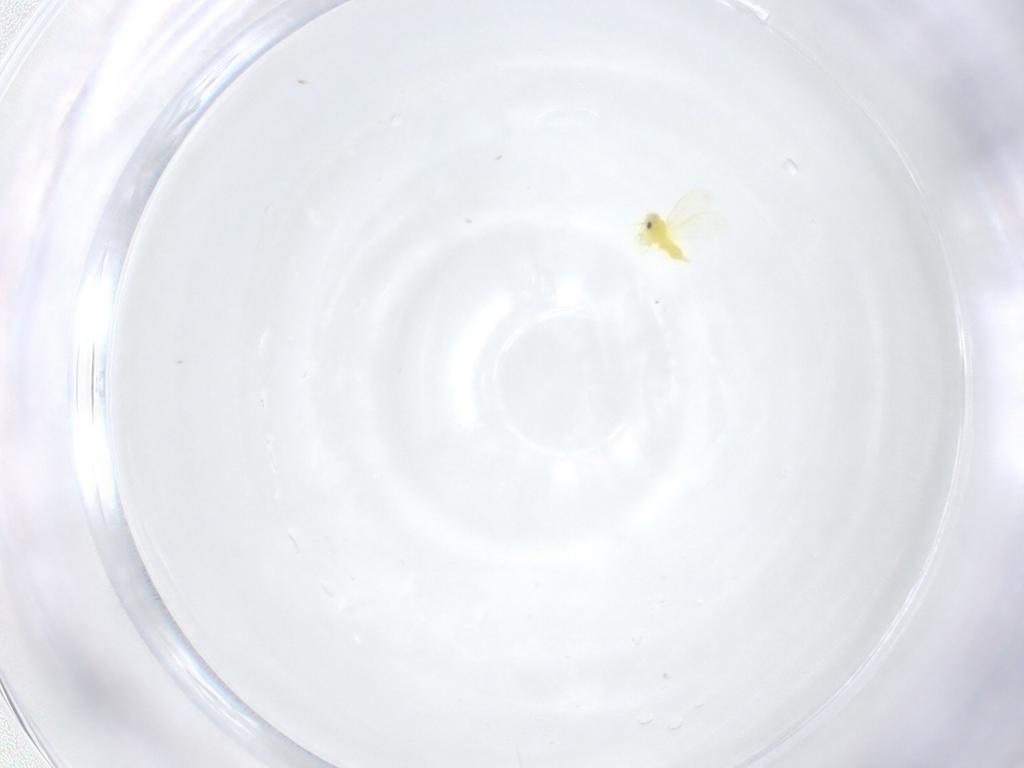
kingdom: Animalia
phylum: Arthropoda
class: Insecta
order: Hemiptera
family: Aleyrodidae
